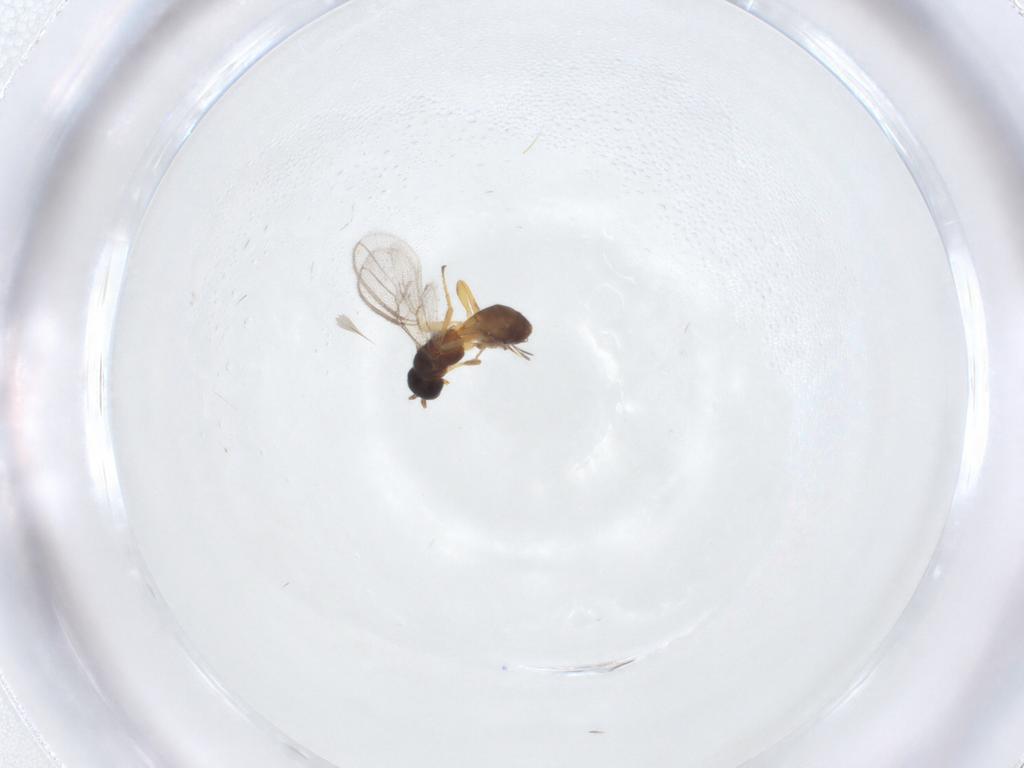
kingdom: Animalia
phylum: Arthropoda
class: Insecta
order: Hymenoptera
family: Braconidae
